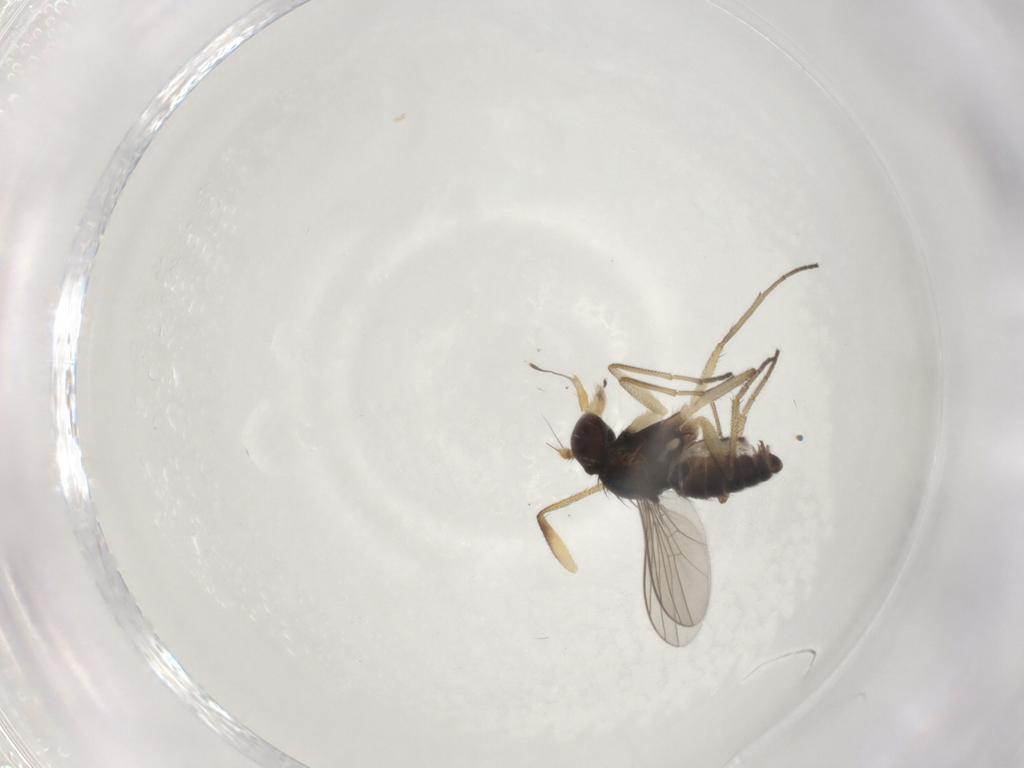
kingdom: Animalia
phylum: Arthropoda
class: Insecta
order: Diptera
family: Dolichopodidae
